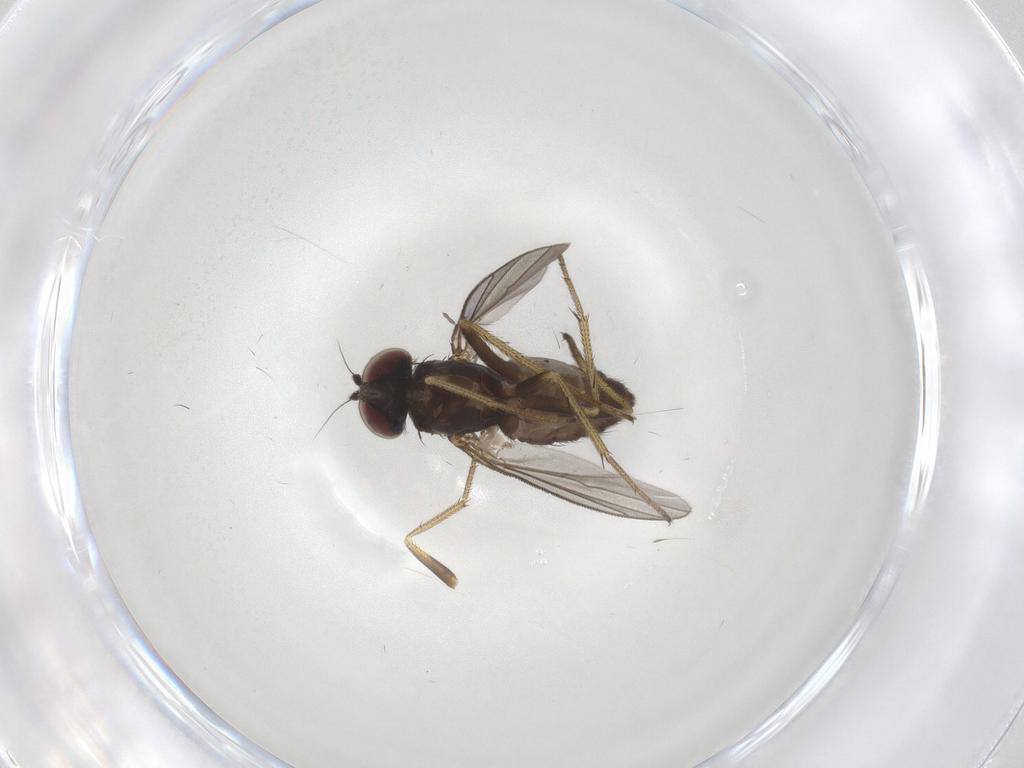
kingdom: Animalia
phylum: Arthropoda
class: Insecta
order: Diptera
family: Dolichopodidae
